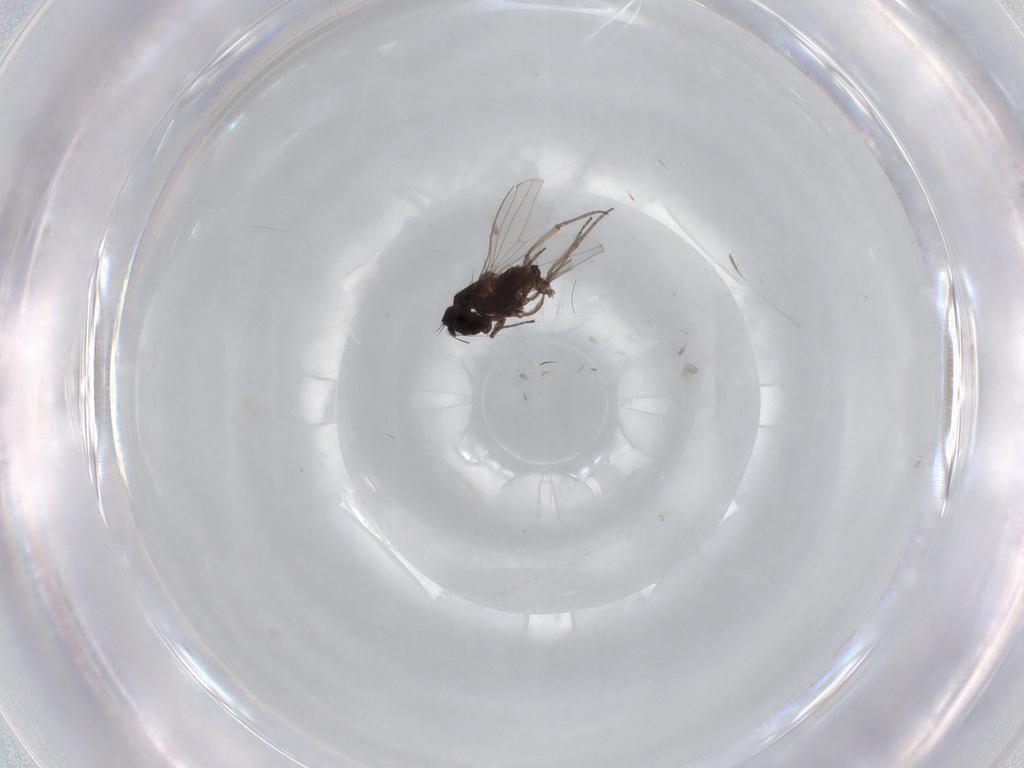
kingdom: Animalia
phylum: Arthropoda
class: Insecta
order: Diptera
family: Dolichopodidae
